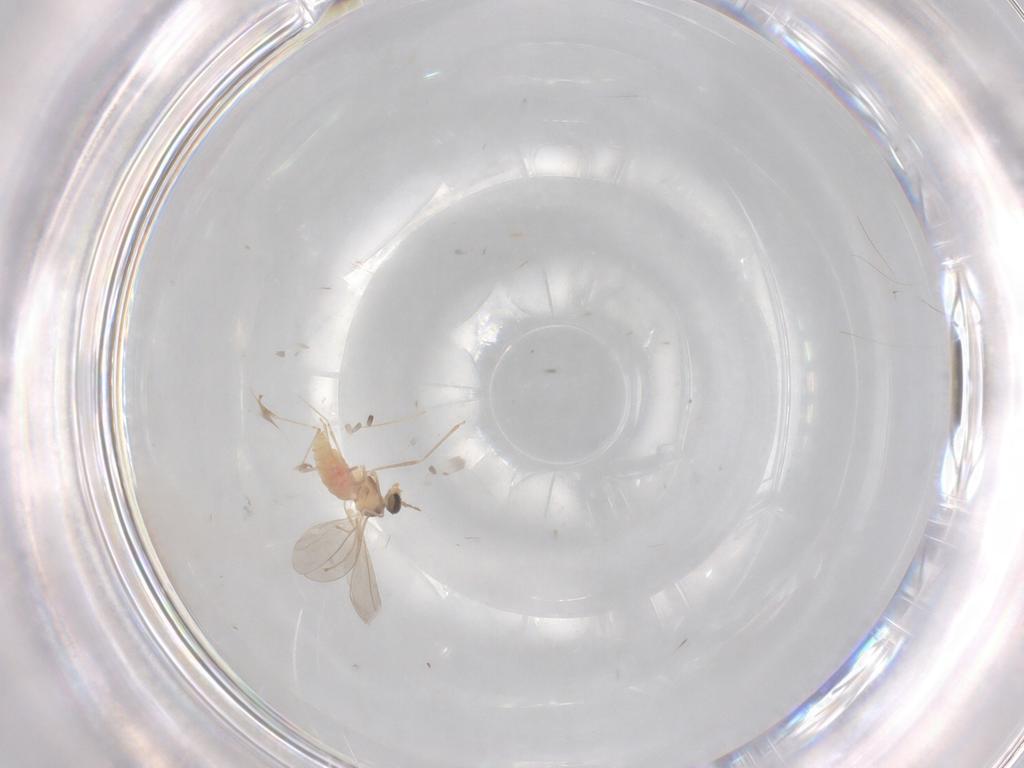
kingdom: Animalia
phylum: Arthropoda
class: Insecta
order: Diptera
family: Cecidomyiidae
